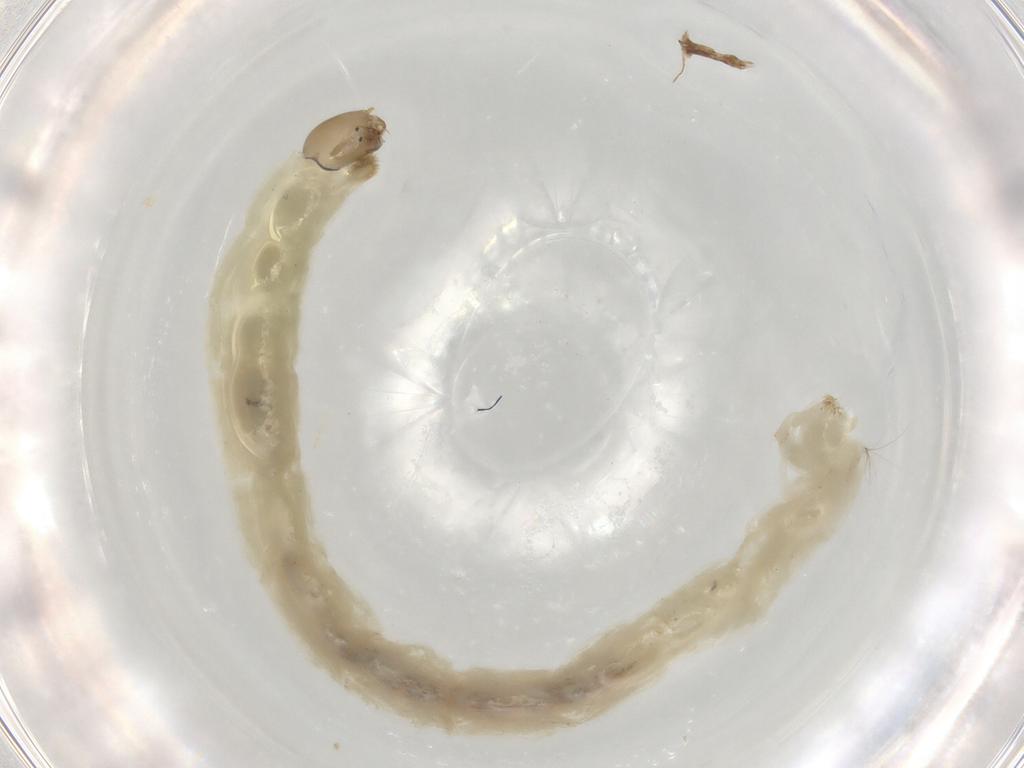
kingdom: Animalia
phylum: Arthropoda
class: Insecta
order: Diptera
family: Chironomidae
